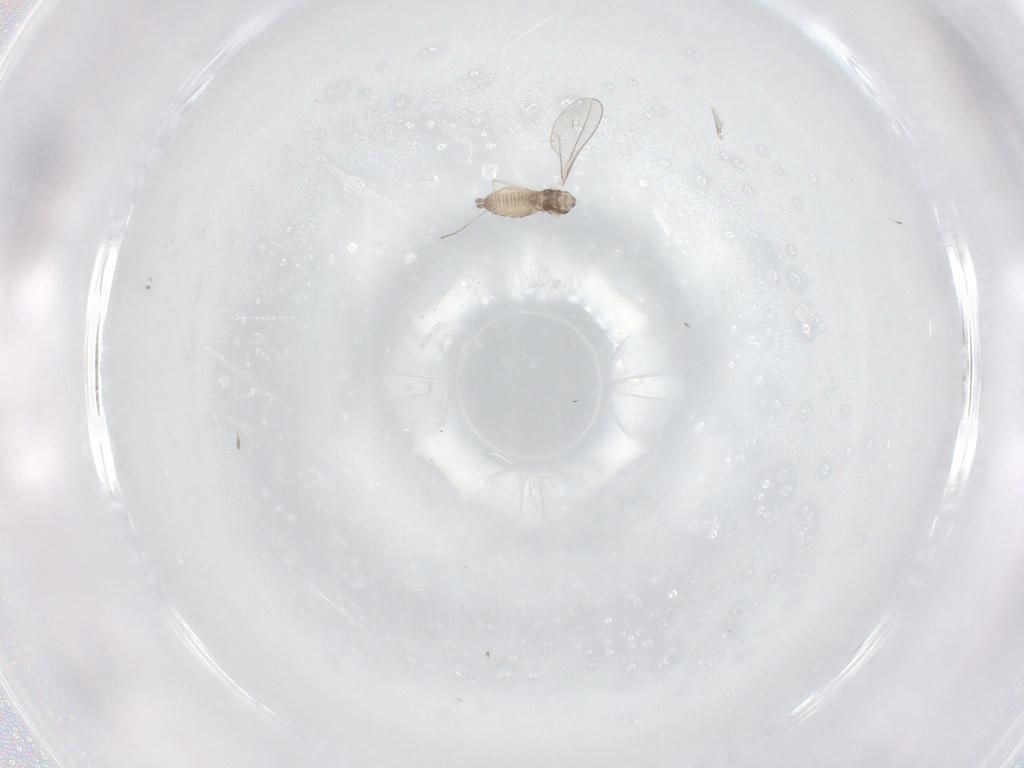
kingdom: Animalia
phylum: Arthropoda
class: Insecta
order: Diptera
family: Cecidomyiidae
